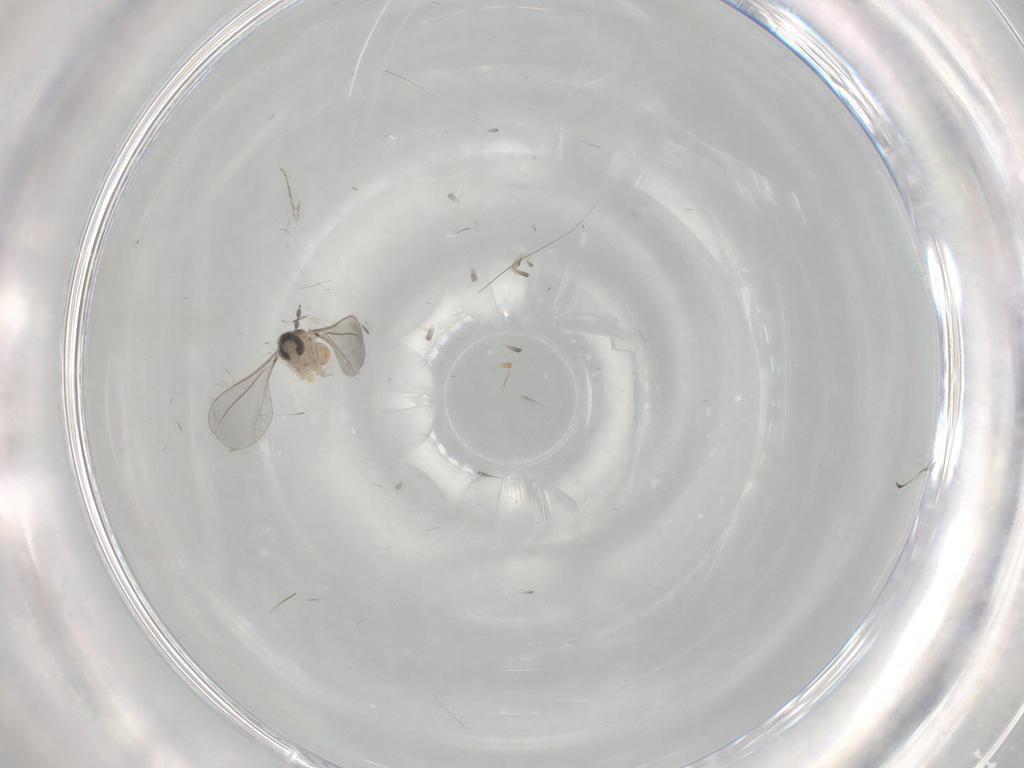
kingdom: Animalia
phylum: Arthropoda
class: Insecta
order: Diptera
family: Cecidomyiidae
